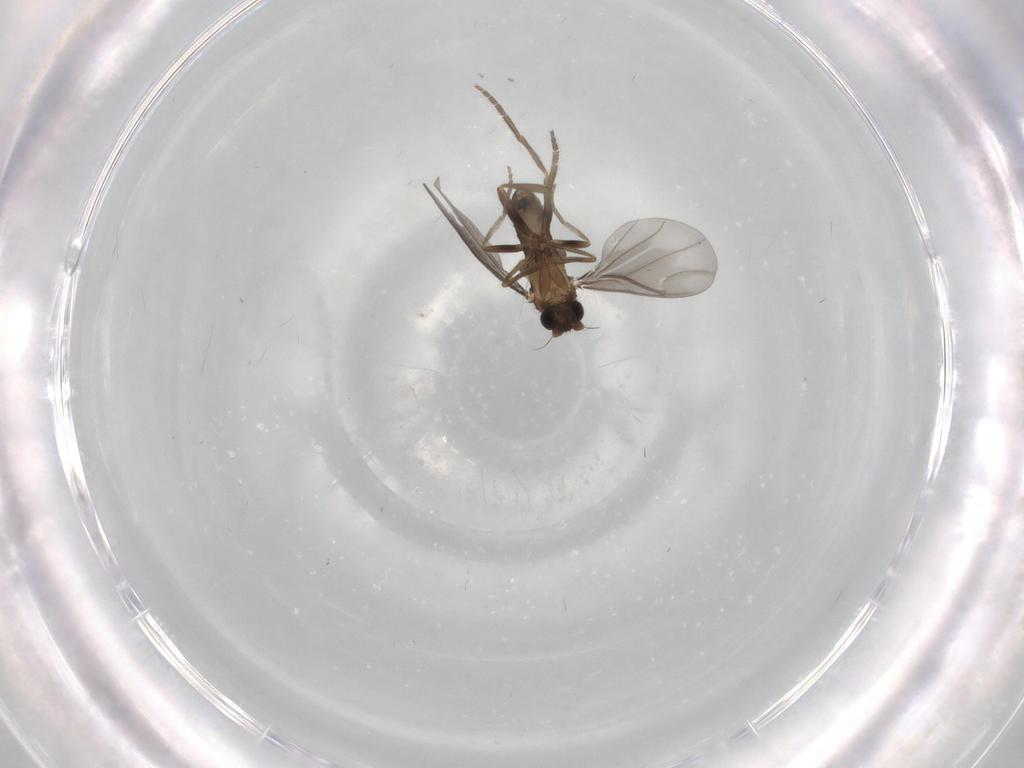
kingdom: Animalia
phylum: Arthropoda
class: Insecta
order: Diptera
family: Phoridae
